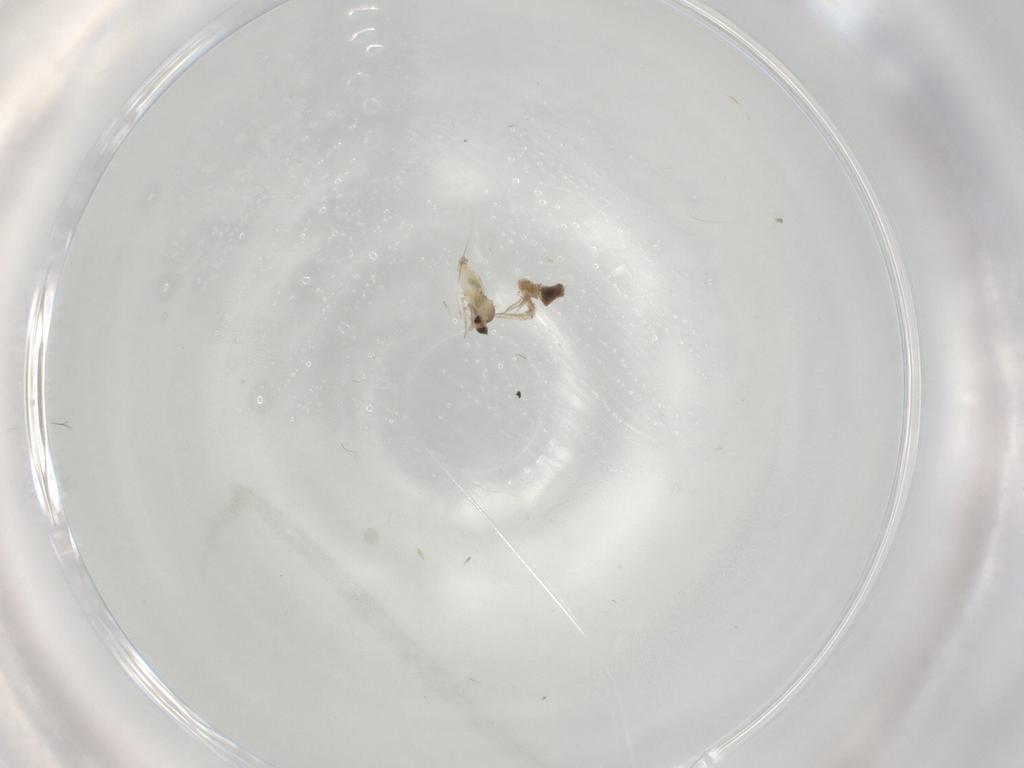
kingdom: Animalia
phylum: Arthropoda
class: Insecta
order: Diptera
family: Cecidomyiidae
